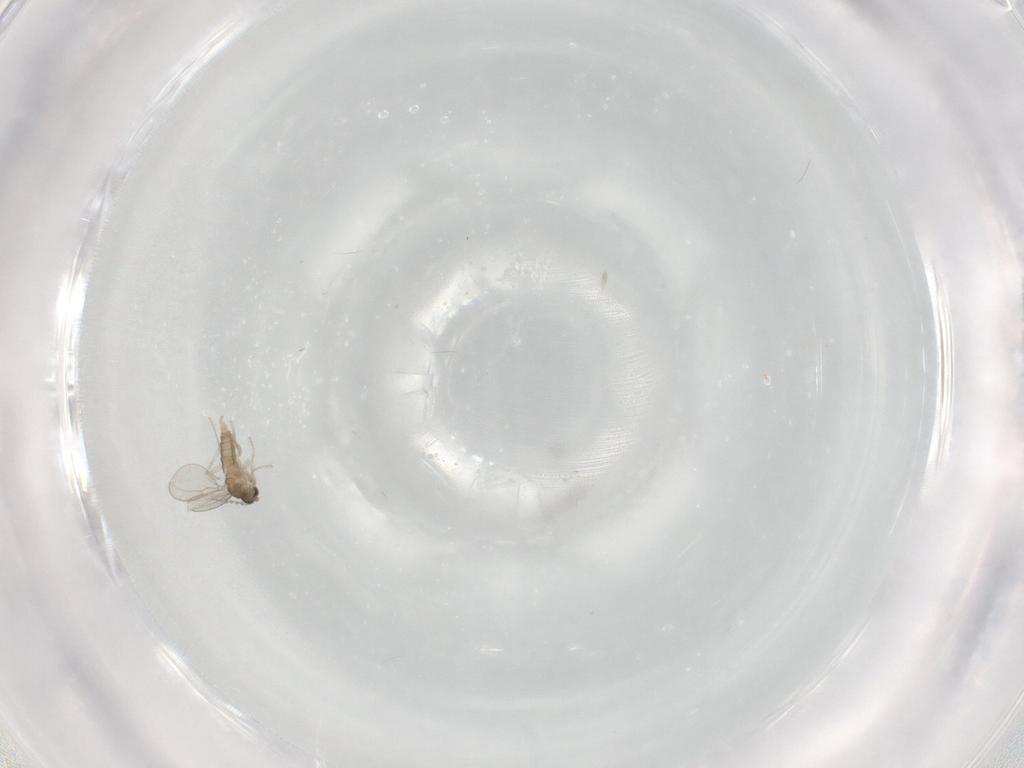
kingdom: Animalia
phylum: Arthropoda
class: Insecta
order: Diptera
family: Cecidomyiidae
